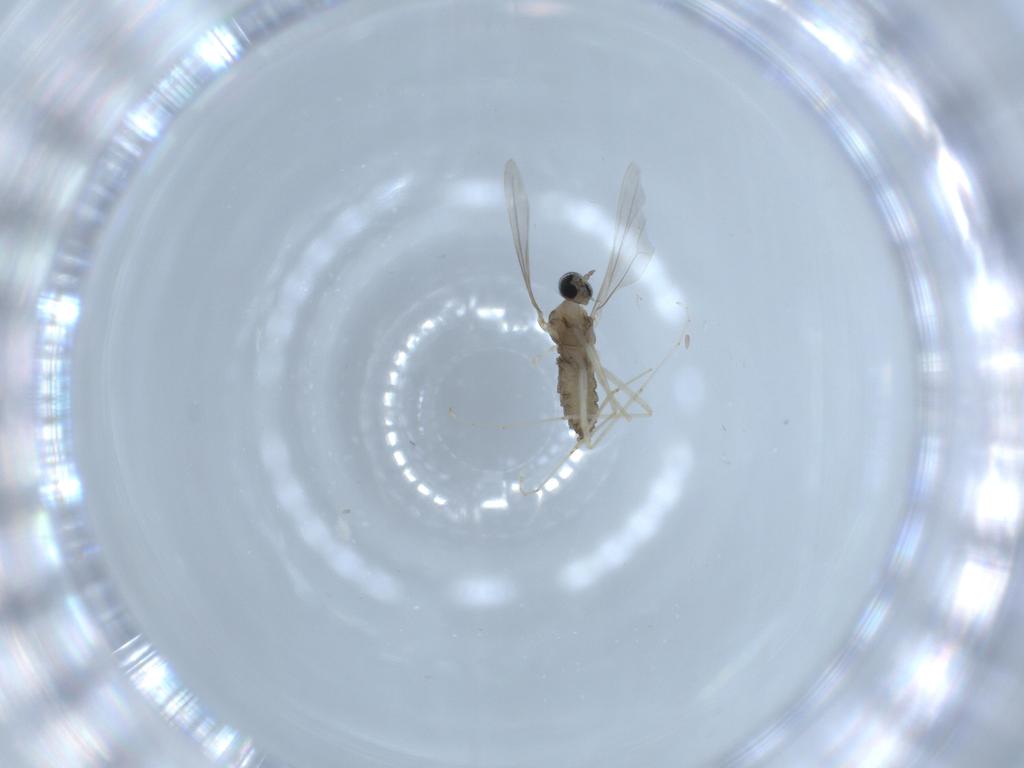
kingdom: Animalia
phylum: Arthropoda
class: Insecta
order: Diptera
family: Cecidomyiidae
